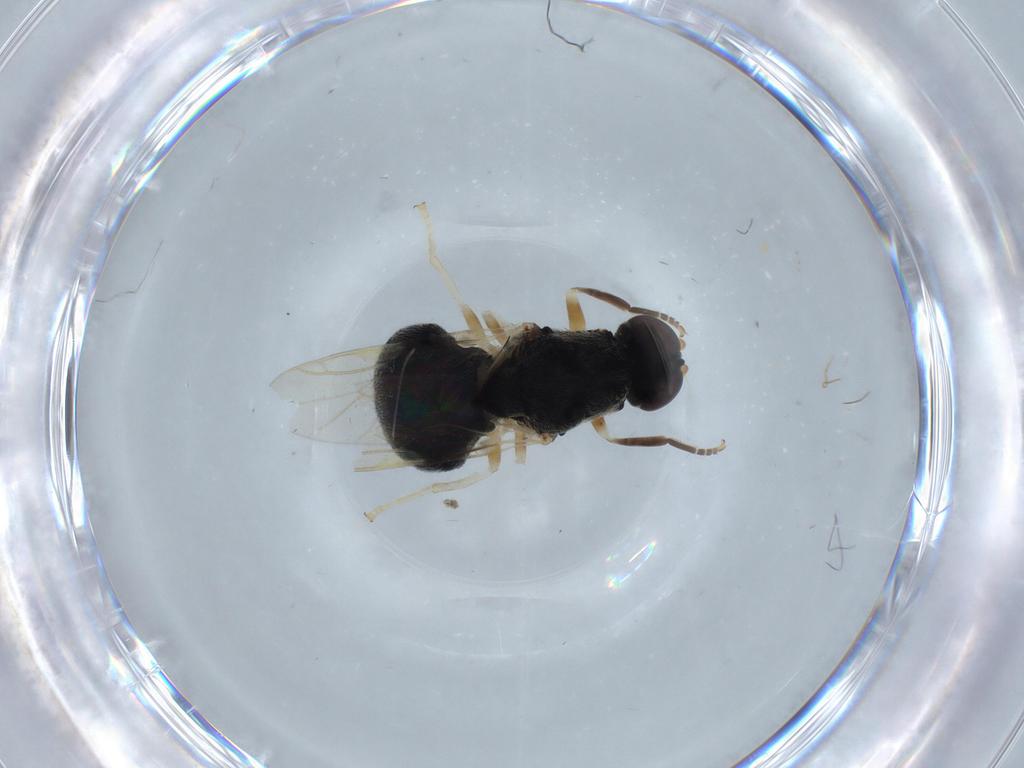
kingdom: Animalia
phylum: Arthropoda
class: Insecta
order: Diptera
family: Stratiomyidae
